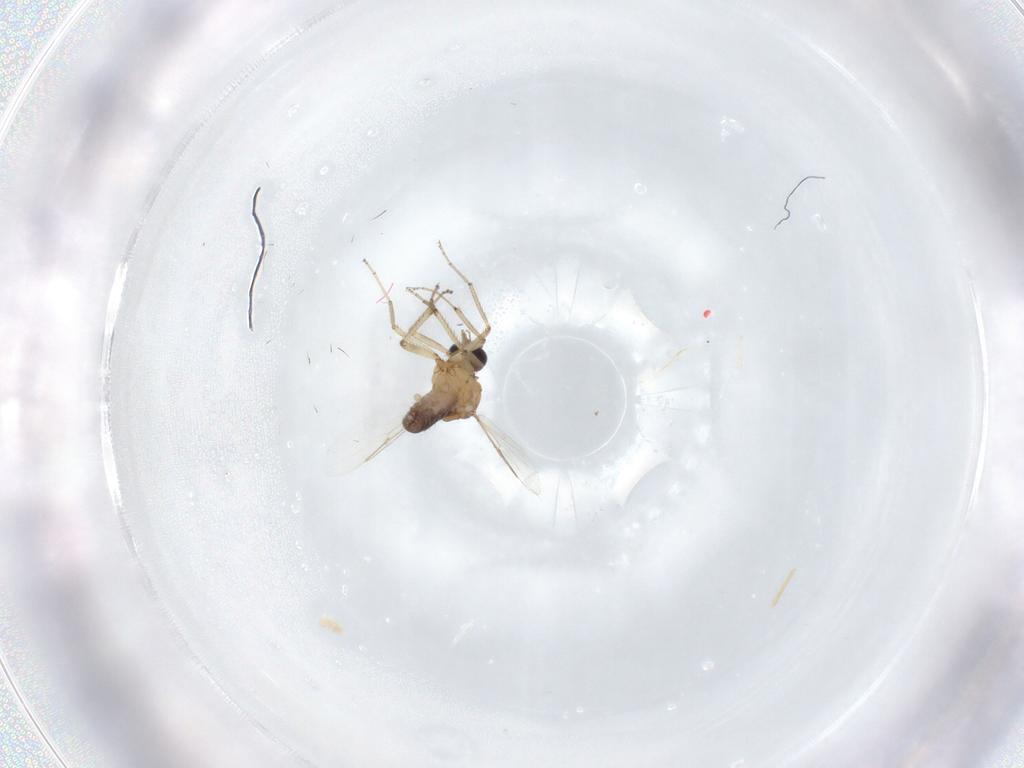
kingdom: Animalia
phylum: Arthropoda
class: Insecta
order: Diptera
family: Ceratopogonidae
